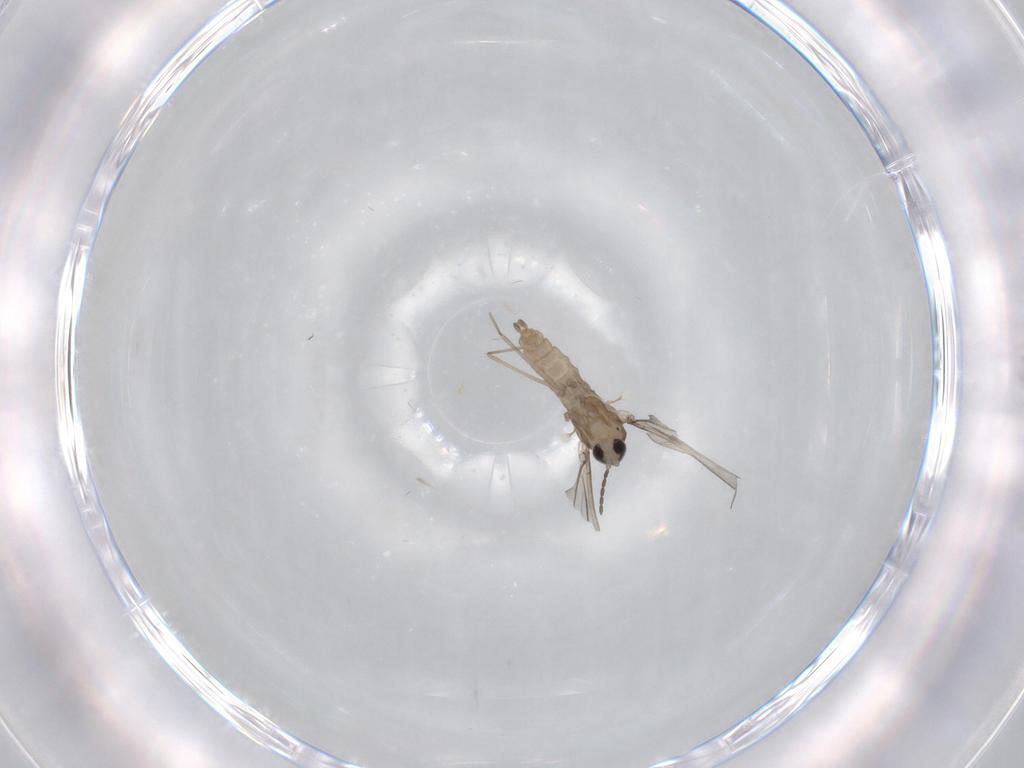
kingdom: Animalia
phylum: Arthropoda
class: Insecta
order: Diptera
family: Cecidomyiidae
